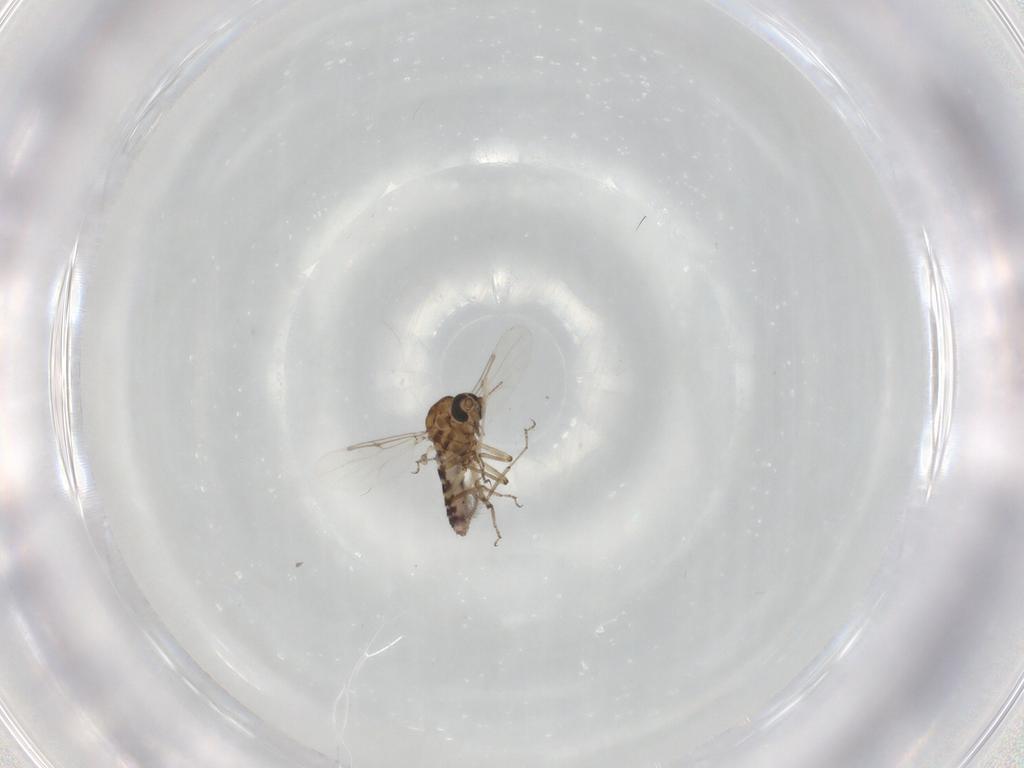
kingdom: Animalia
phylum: Arthropoda
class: Insecta
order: Diptera
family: Ceratopogonidae
